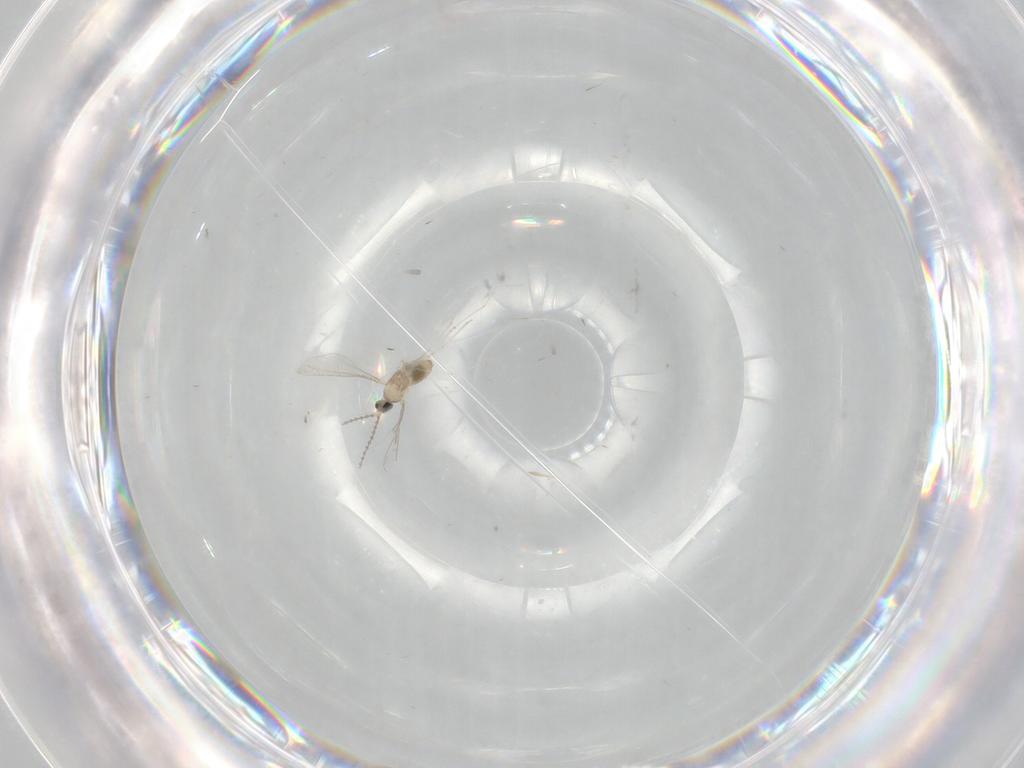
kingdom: Animalia
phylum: Arthropoda
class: Insecta
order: Diptera
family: Cecidomyiidae
